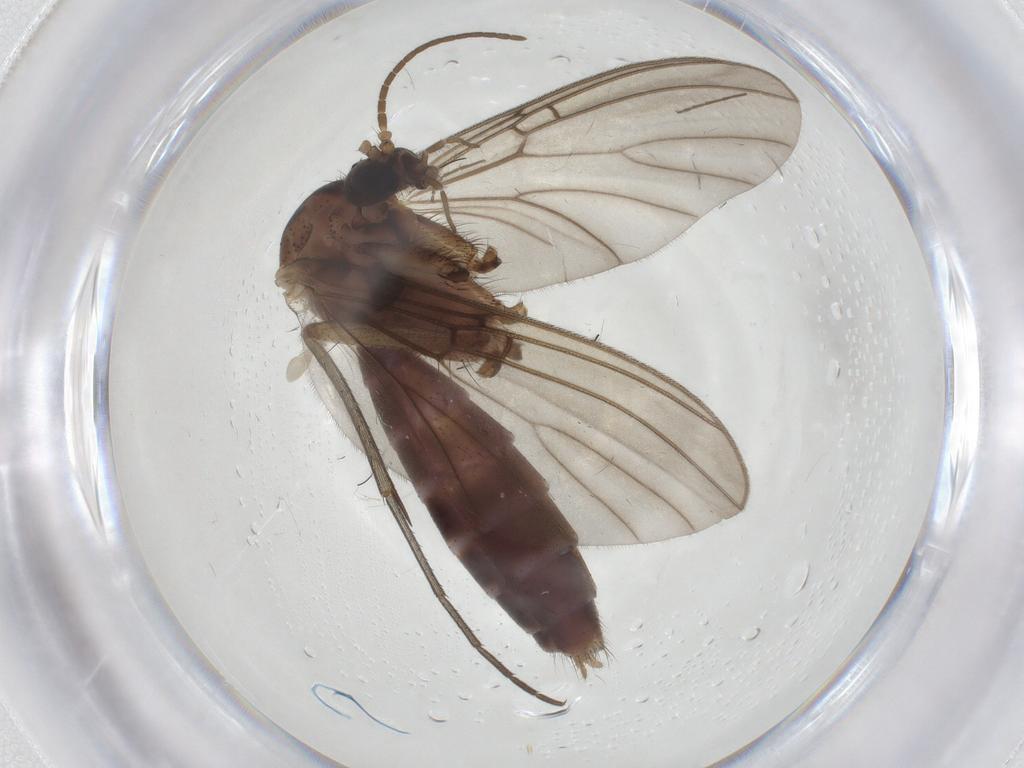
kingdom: Animalia
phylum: Arthropoda
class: Insecta
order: Diptera
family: Mycetophilidae
